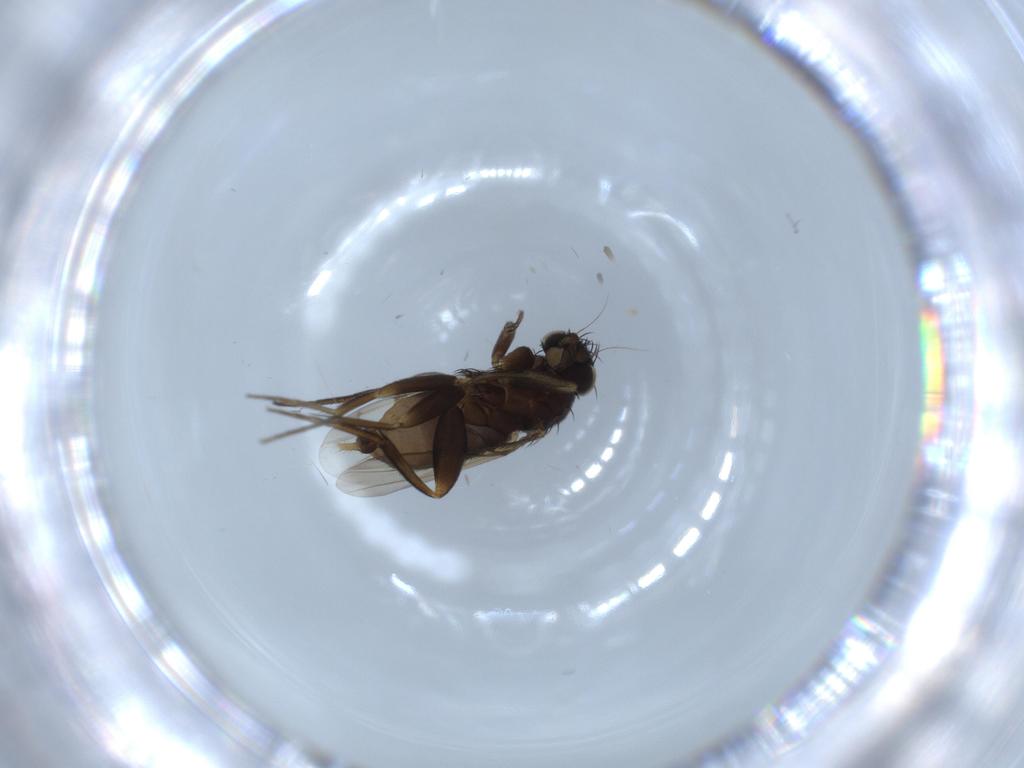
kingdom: Animalia
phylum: Arthropoda
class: Insecta
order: Diptera
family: Phoridae
